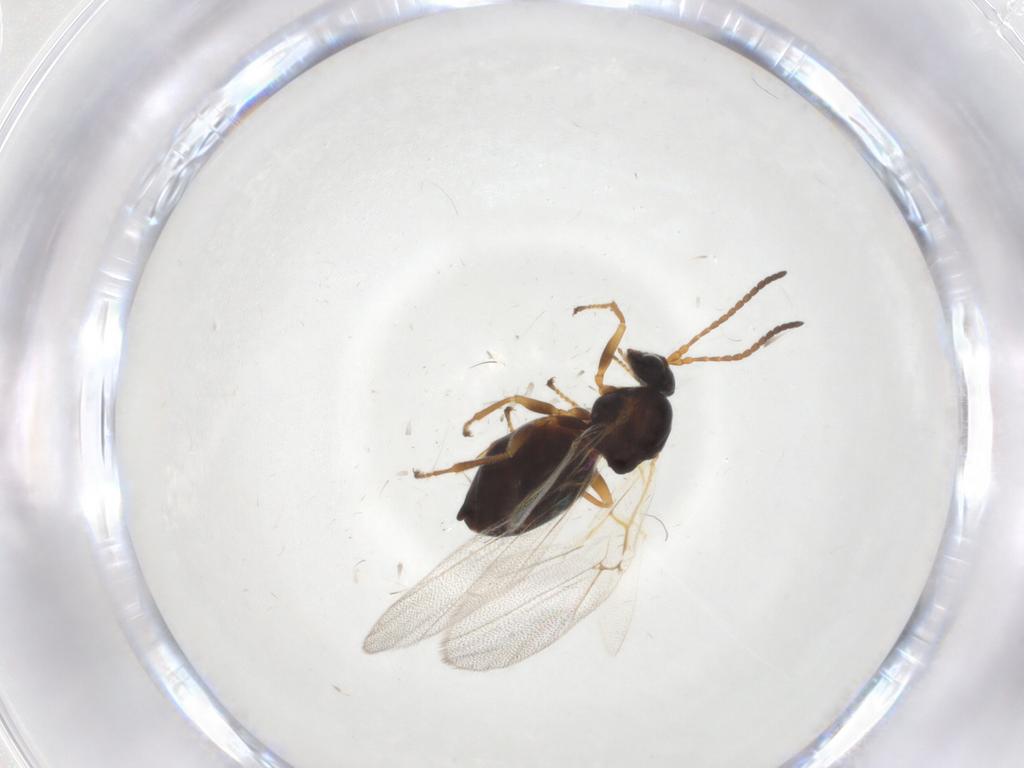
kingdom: Animalia
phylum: Arthropoda
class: Insecta
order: Hymenoptera
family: Cynipidae
